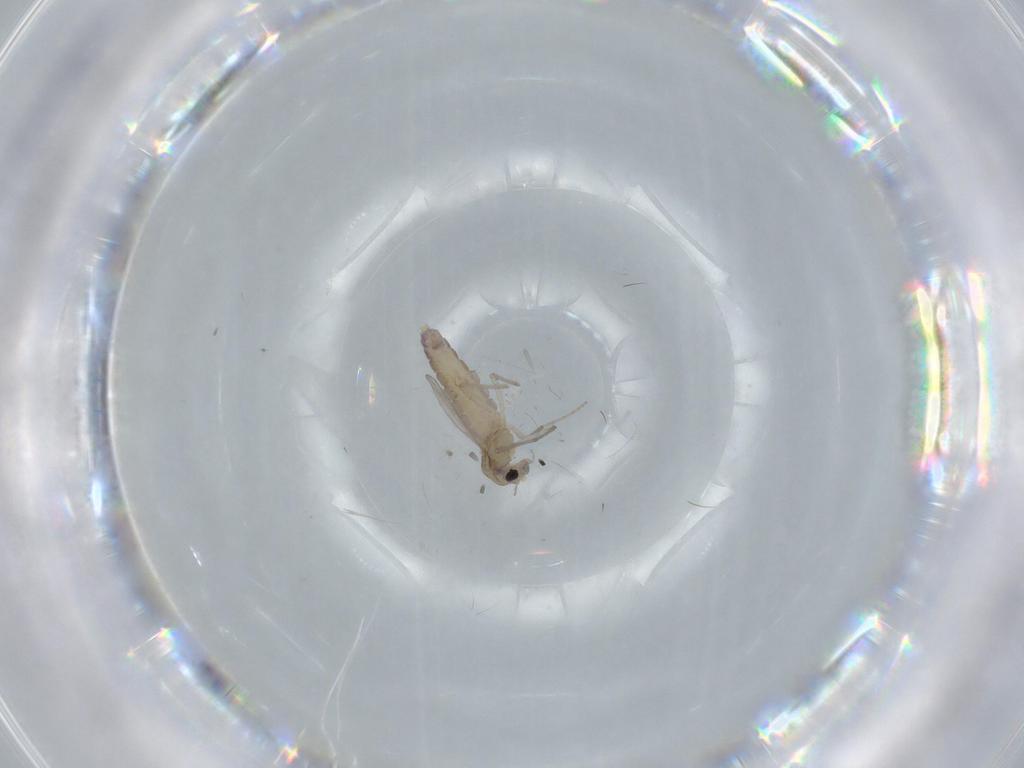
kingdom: Animalia
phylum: Arthropoda
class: Insecta
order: Diptera
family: Chironomidae
